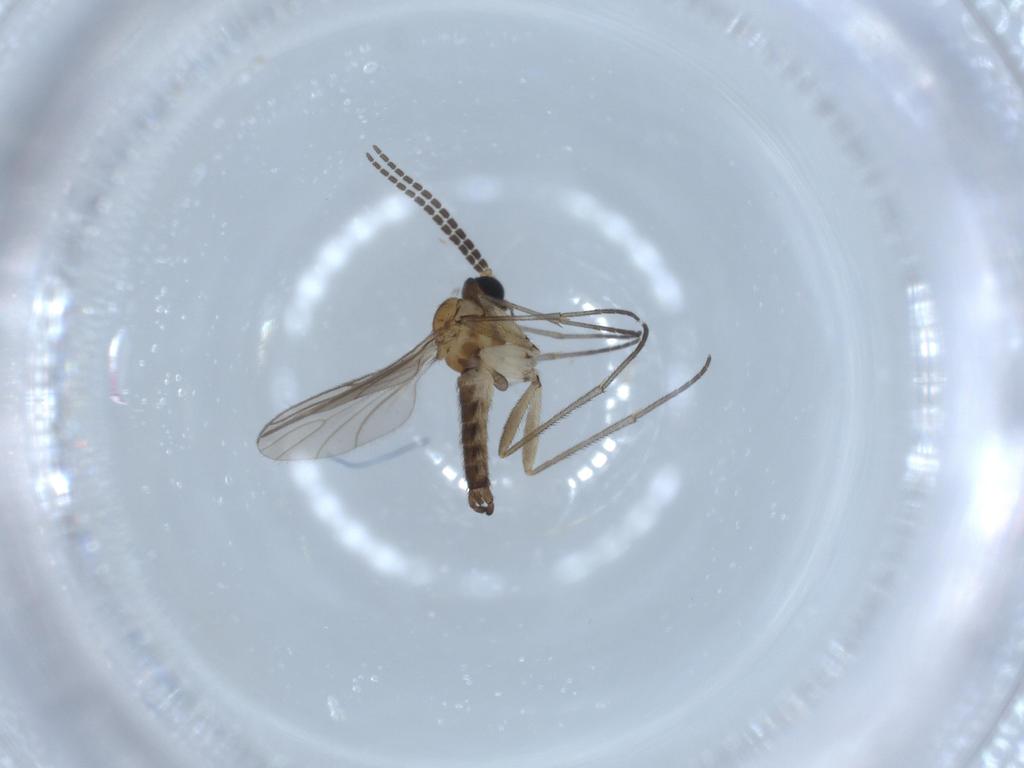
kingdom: Animalia
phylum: Arthropoda
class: Insecta
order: Diptera
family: Sciaridae
